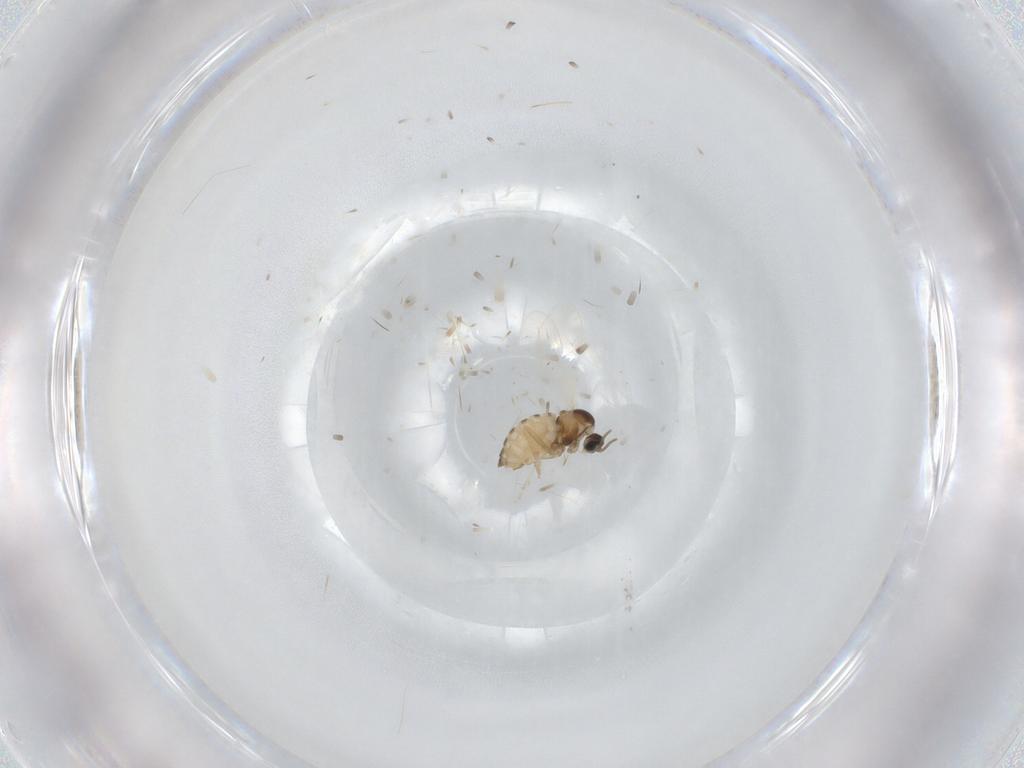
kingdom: Animalia
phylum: Arthropoda
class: Insecta
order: Diptera
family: Cecidomyiidae
